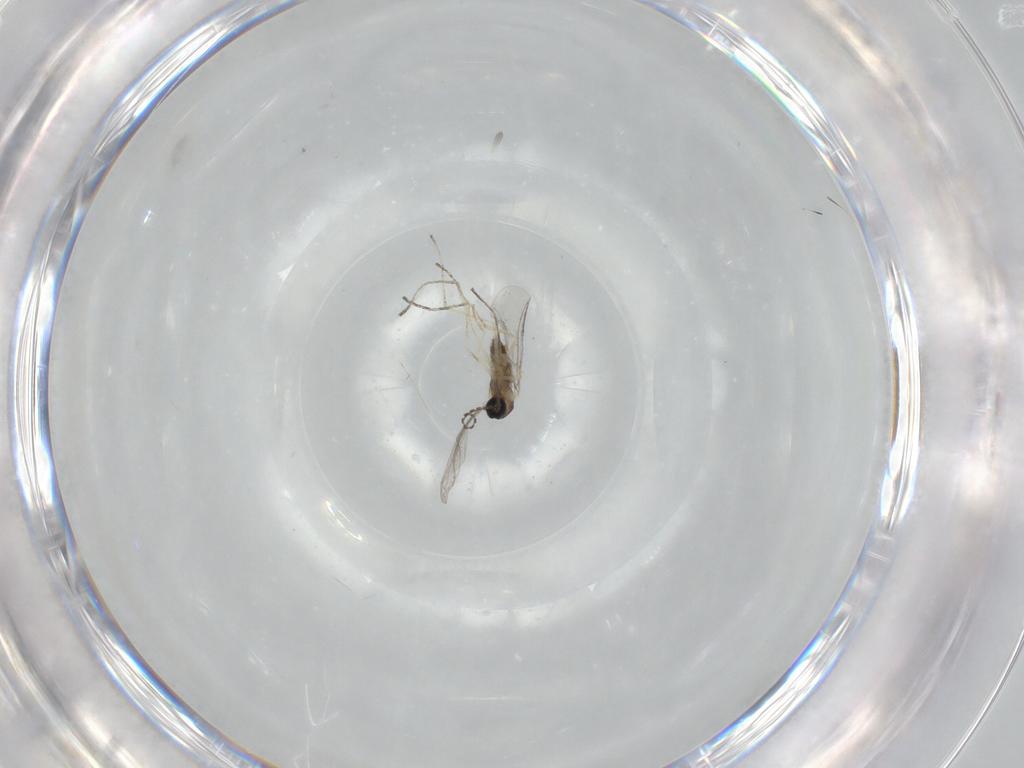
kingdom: Animalia
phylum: Arthropoda
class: Insecta
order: Diptera
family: Cecidomyiidae
